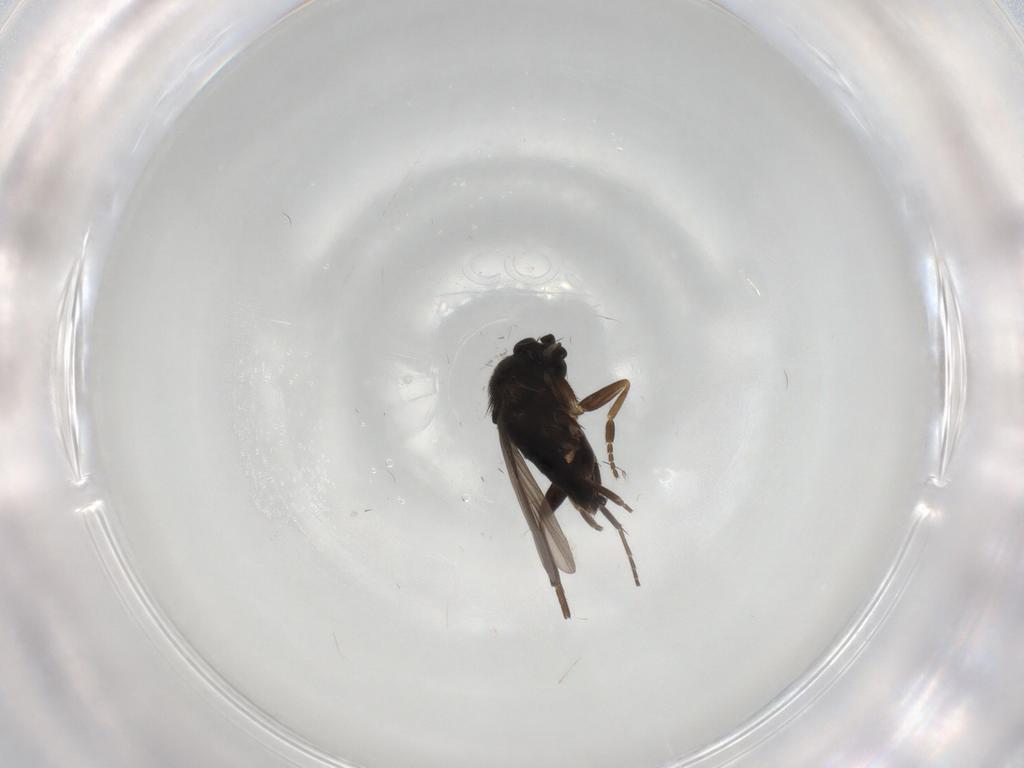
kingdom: Animalia
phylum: Arthropoda
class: Insecta
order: Diptera
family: Phoridae
